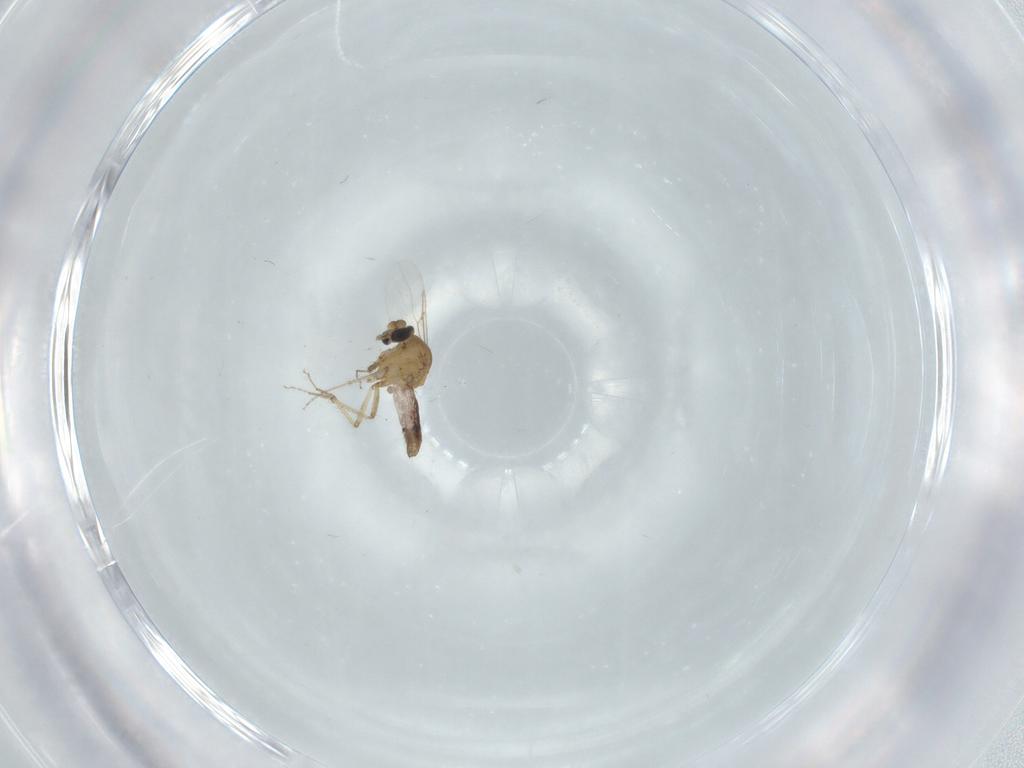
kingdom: Animalia
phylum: Arthropoda
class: Insecta
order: Diptera
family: Ceratopogonidae
